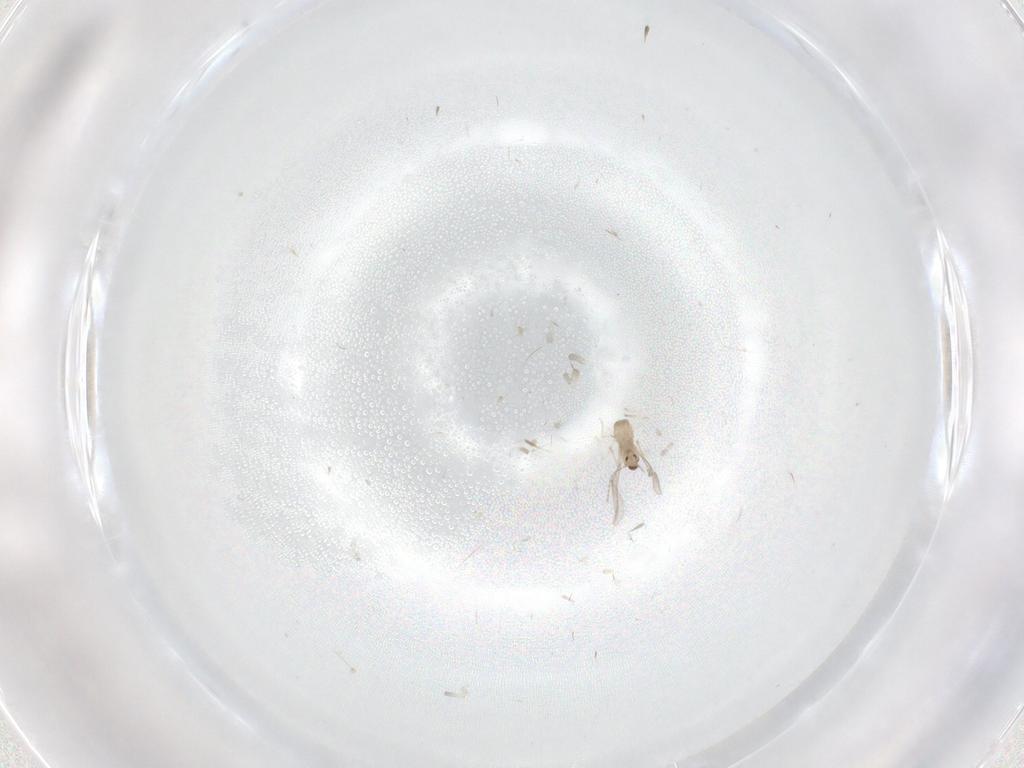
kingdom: Animalia
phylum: Arthropoda
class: Insecta
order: Diptera
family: Cecidomyiidae
